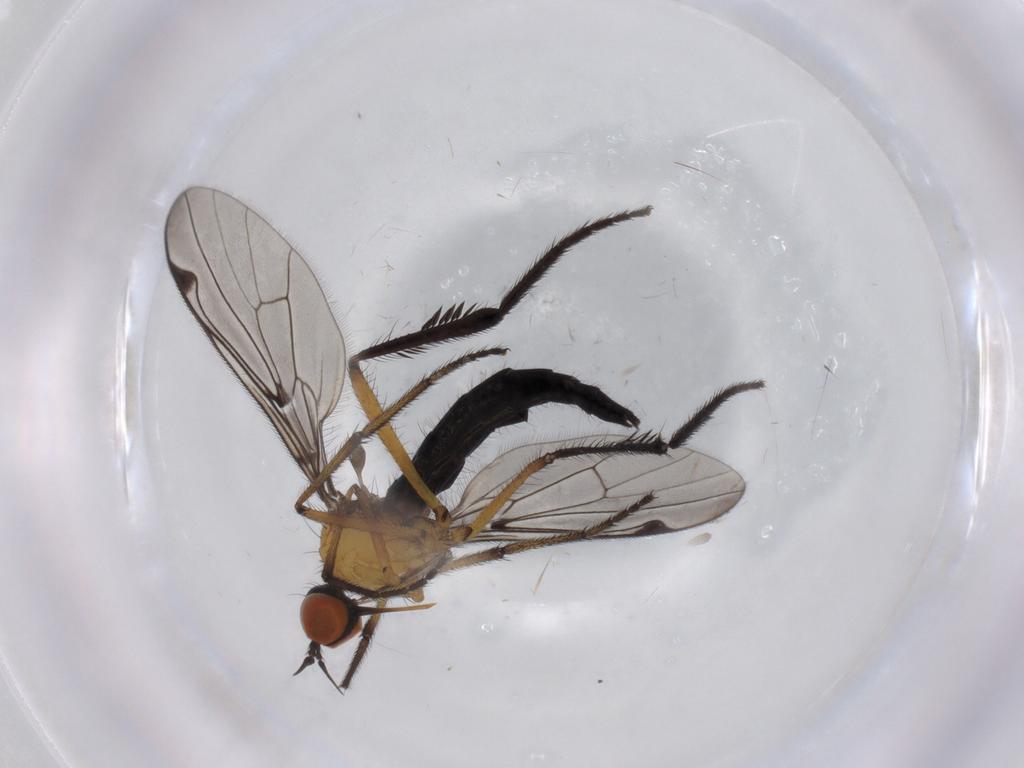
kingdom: Animalia
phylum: Arthropoda
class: Insecta
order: Diptera
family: Empididae
